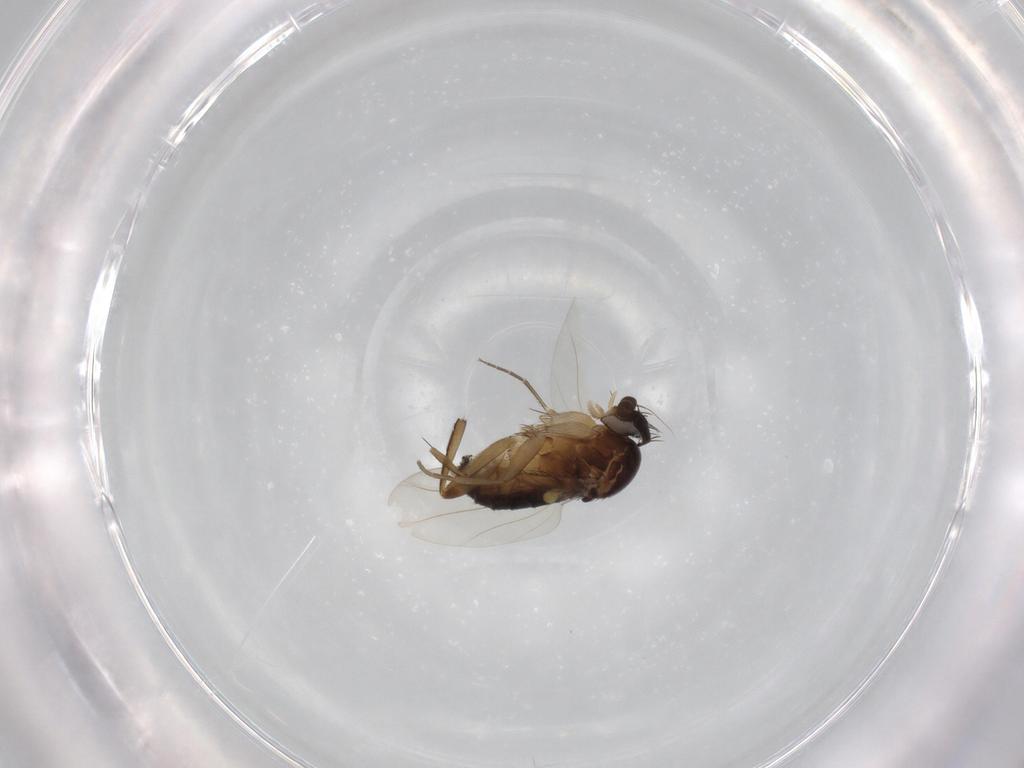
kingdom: Animalia
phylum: Arthropoda
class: Insecta
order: Diptera
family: Phoridae
